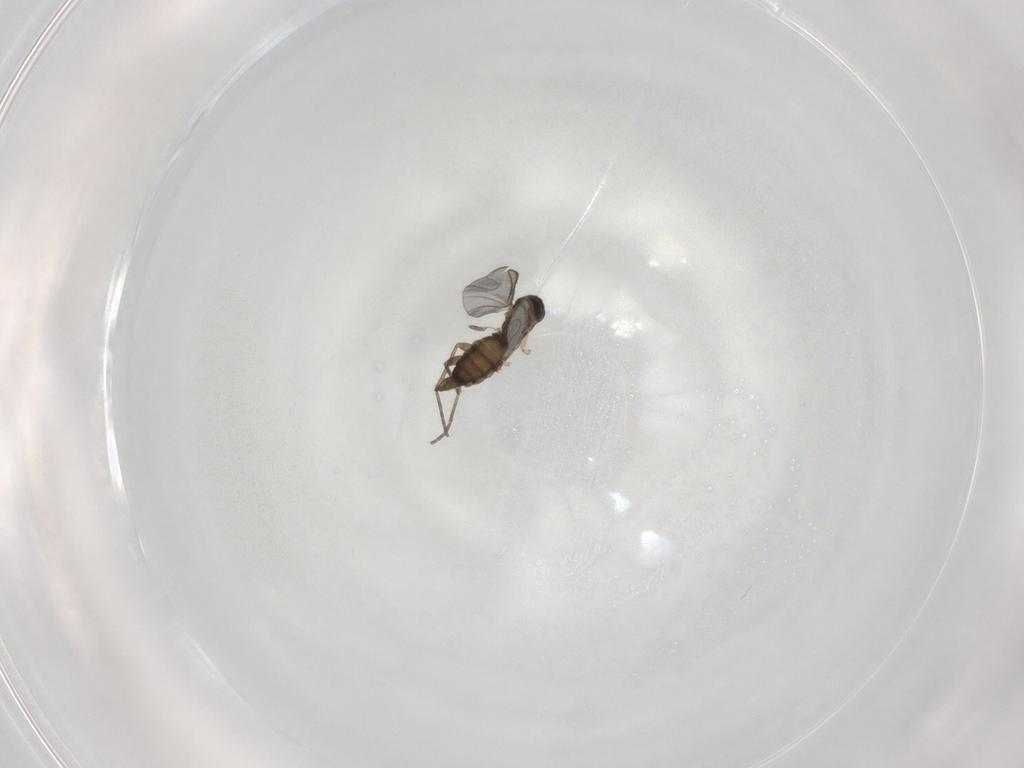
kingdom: Animalia
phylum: Arthropoda
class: Insecta
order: Diptera
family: Sciaridae
